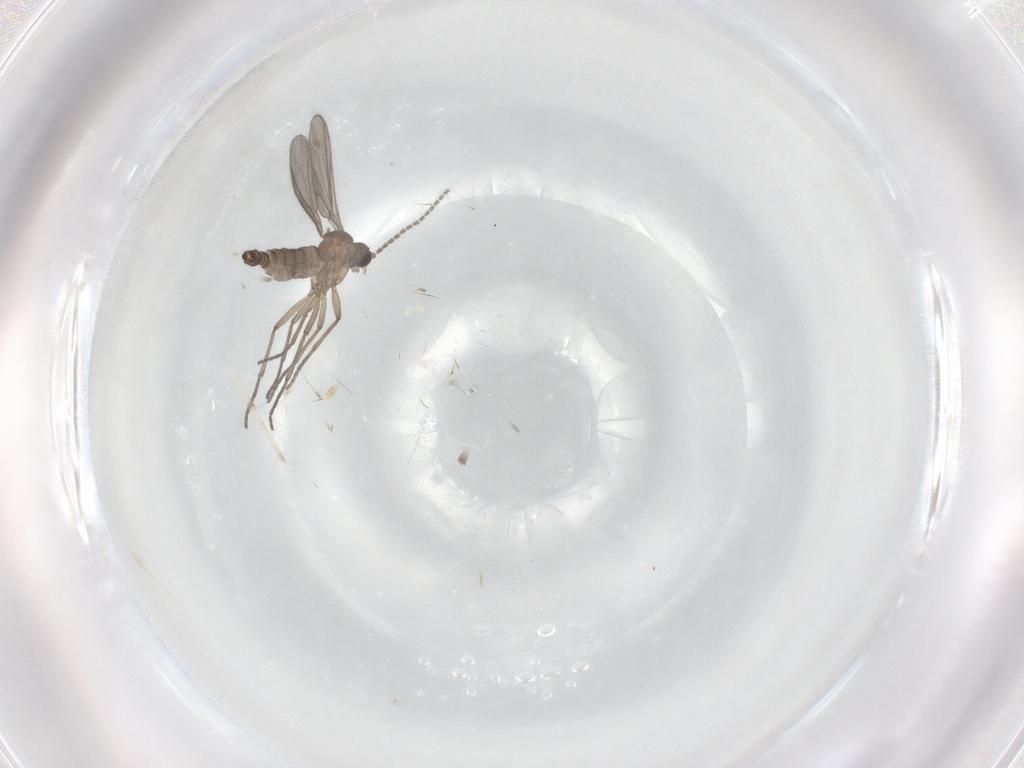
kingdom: Animalia
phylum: Arthropoda
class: Insecta
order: Diptera
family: Sciaridae
